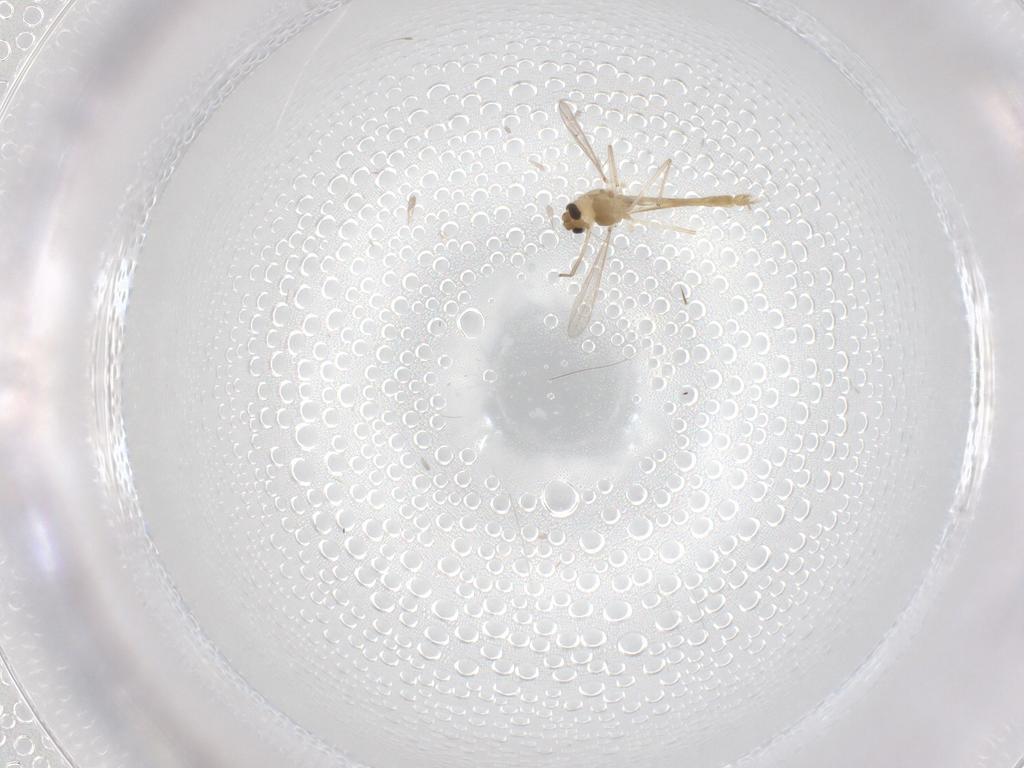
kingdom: Animalia
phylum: Arthropoda
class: Insecta
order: Diptera
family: Chironomidae
